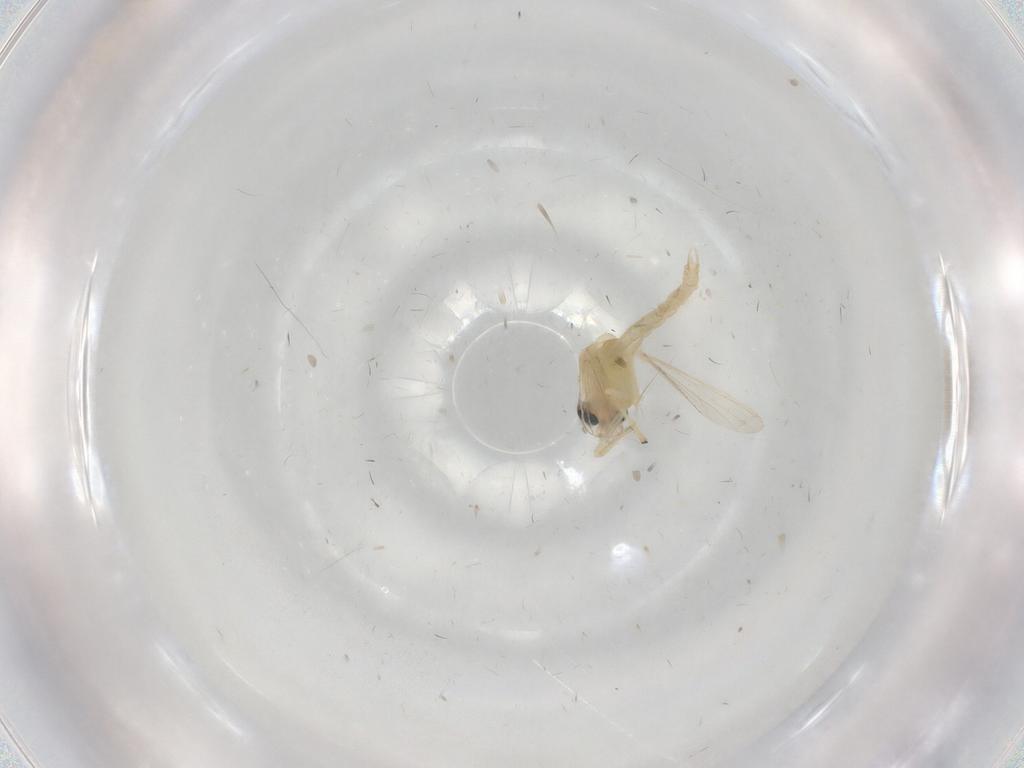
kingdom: Animalia
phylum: Arthropoda
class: Insecta
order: Diptera
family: Chironomidae
